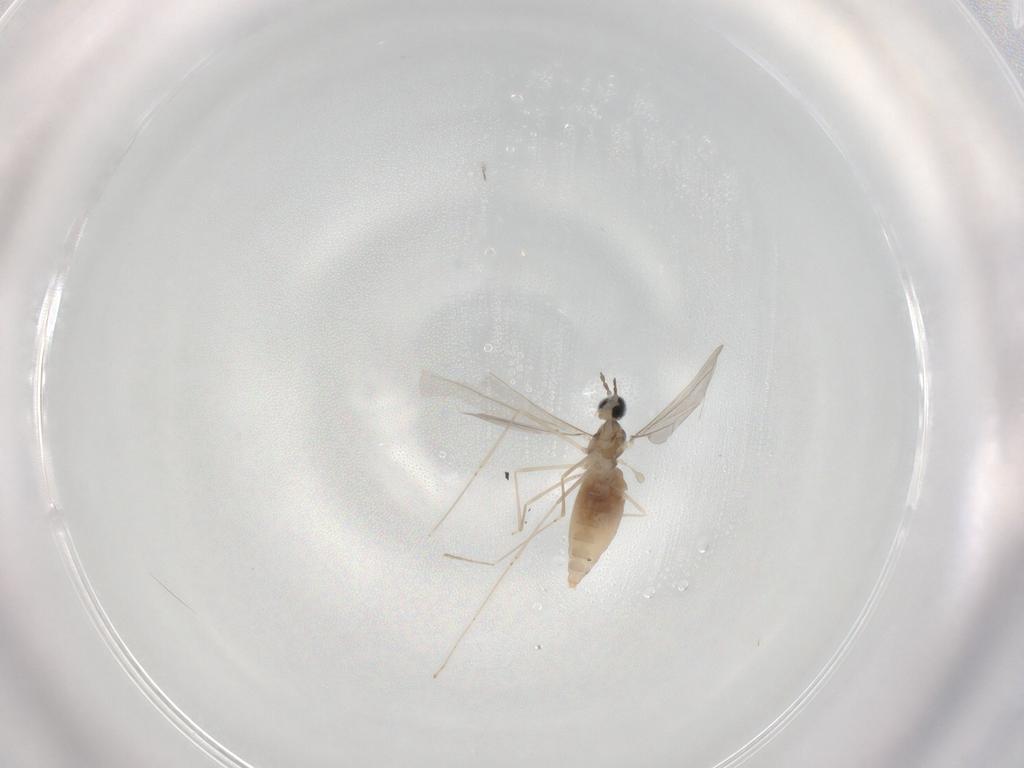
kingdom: Animalia
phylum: Arthropoda
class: Insecta
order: Diptera
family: Cecidomyiidae
